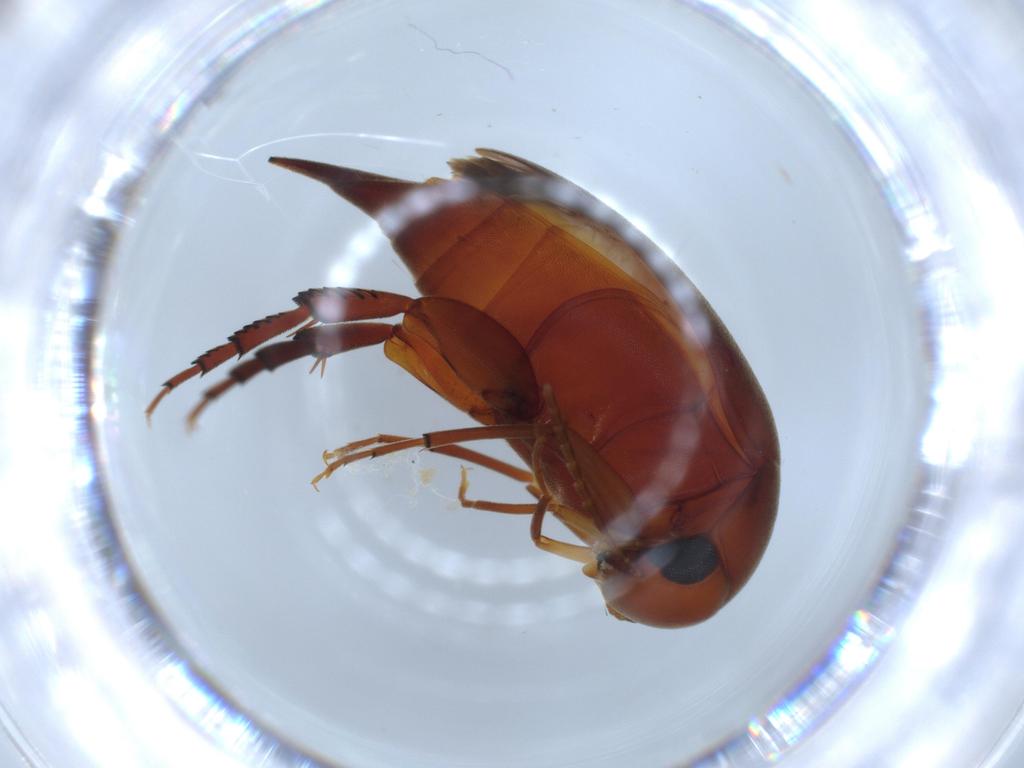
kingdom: Animalia
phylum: Arthropoda
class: Insecta
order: Coleoptera
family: Mordellidae
